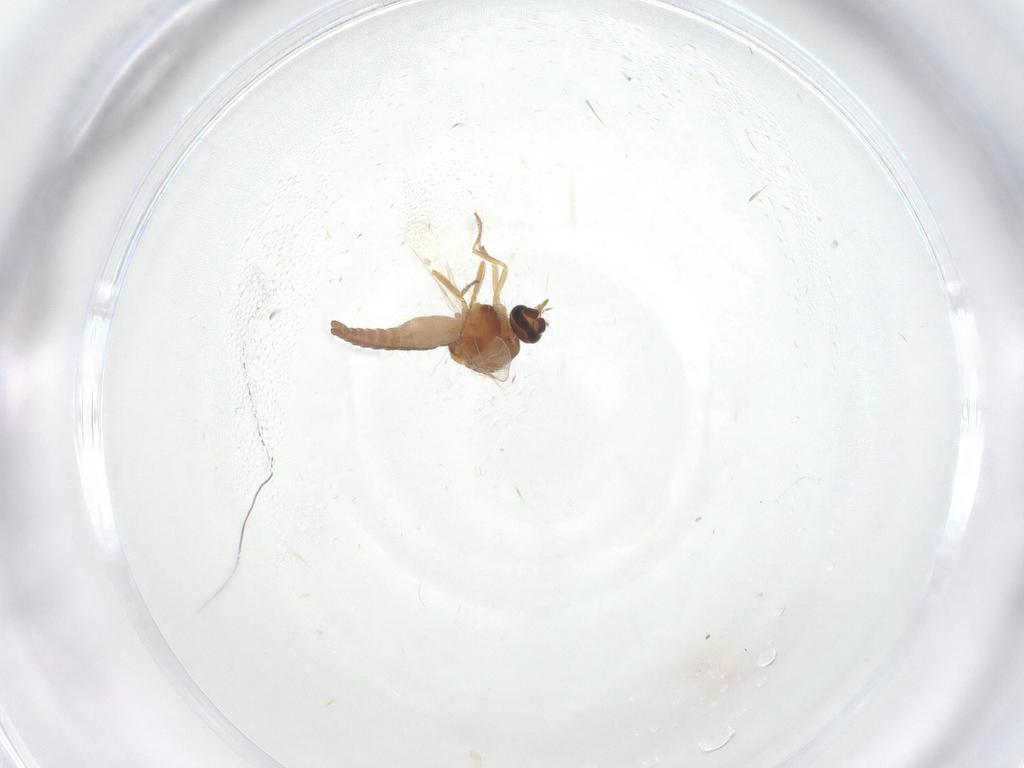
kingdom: Animalia
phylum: Arthropoda
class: Insecta
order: Diptera
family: Ceratopogonidae
